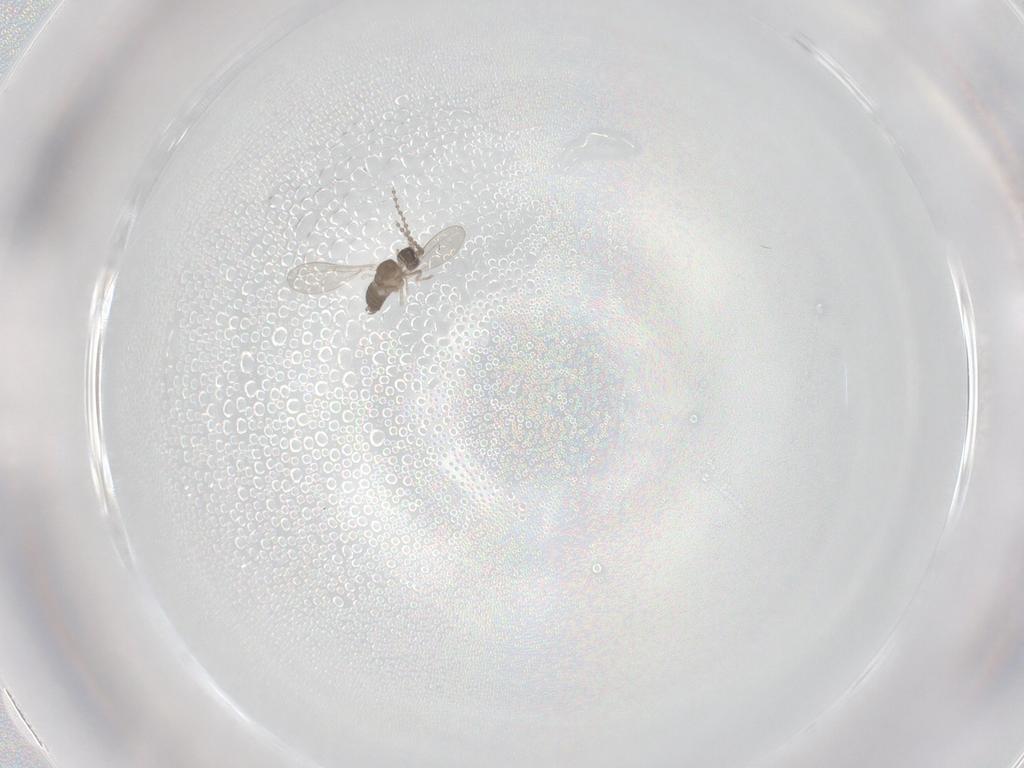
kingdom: Animalia
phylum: Arthropoda
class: Insecta
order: Diptera
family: Cecidomyiidae
